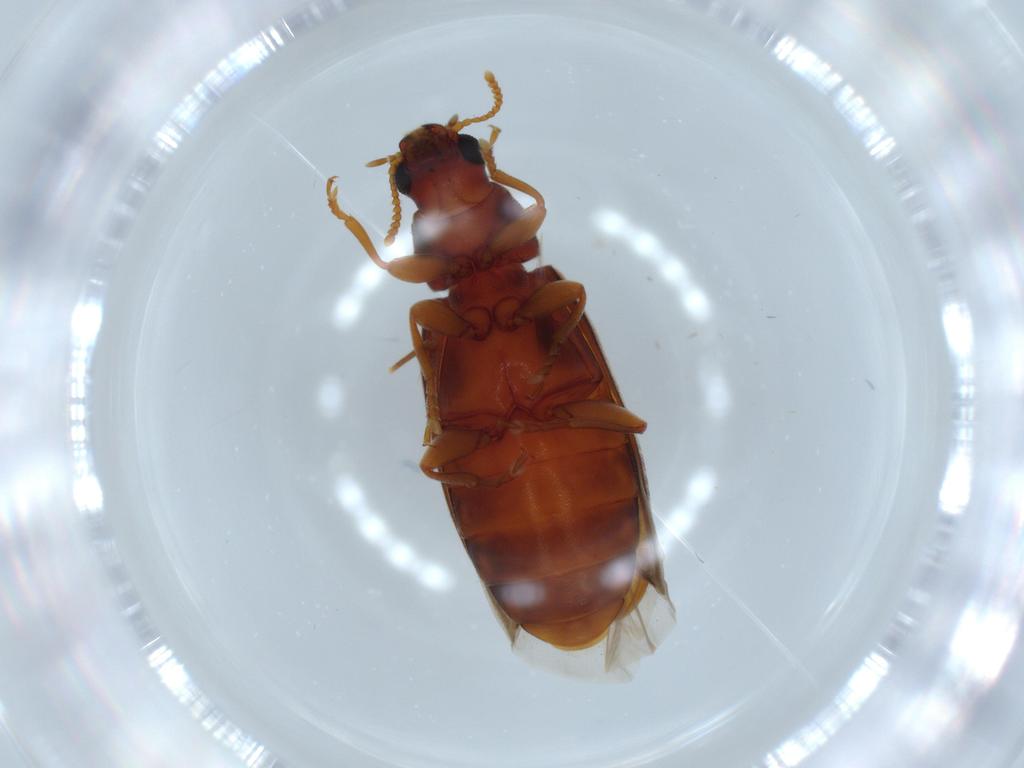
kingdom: Animalia
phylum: Arthropoda
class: Insecta
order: Coleoptera
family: Mycteridae
